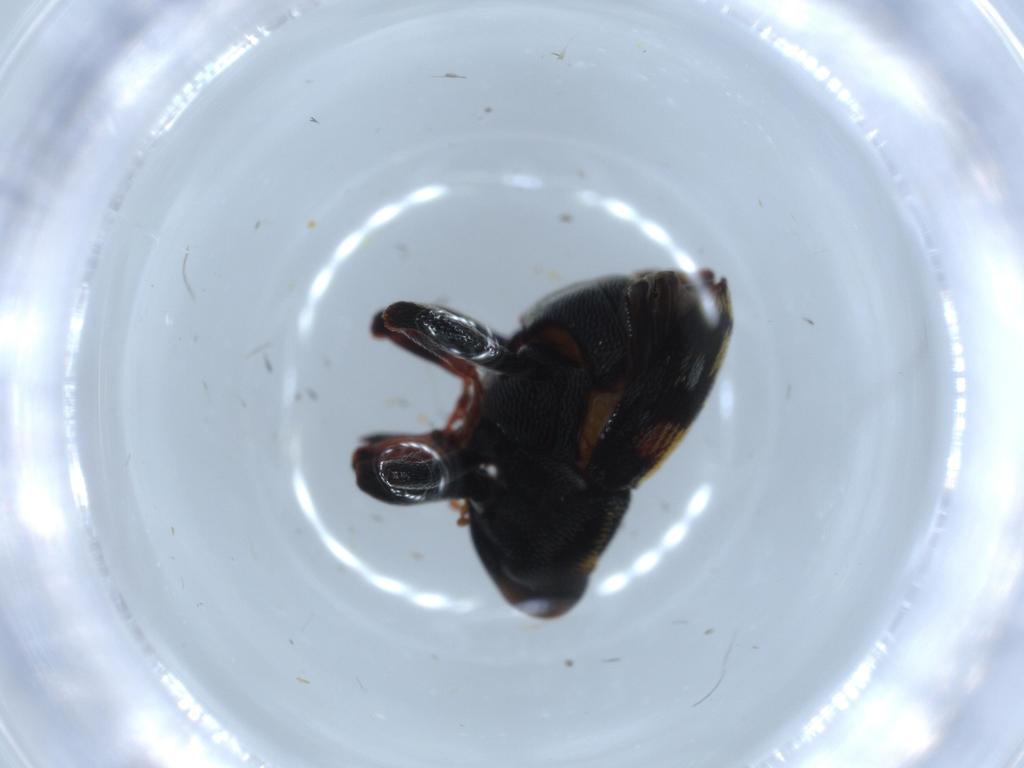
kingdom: Animalia
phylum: Arthropoda
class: Insecta
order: Coleoptera
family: Curculionidae
